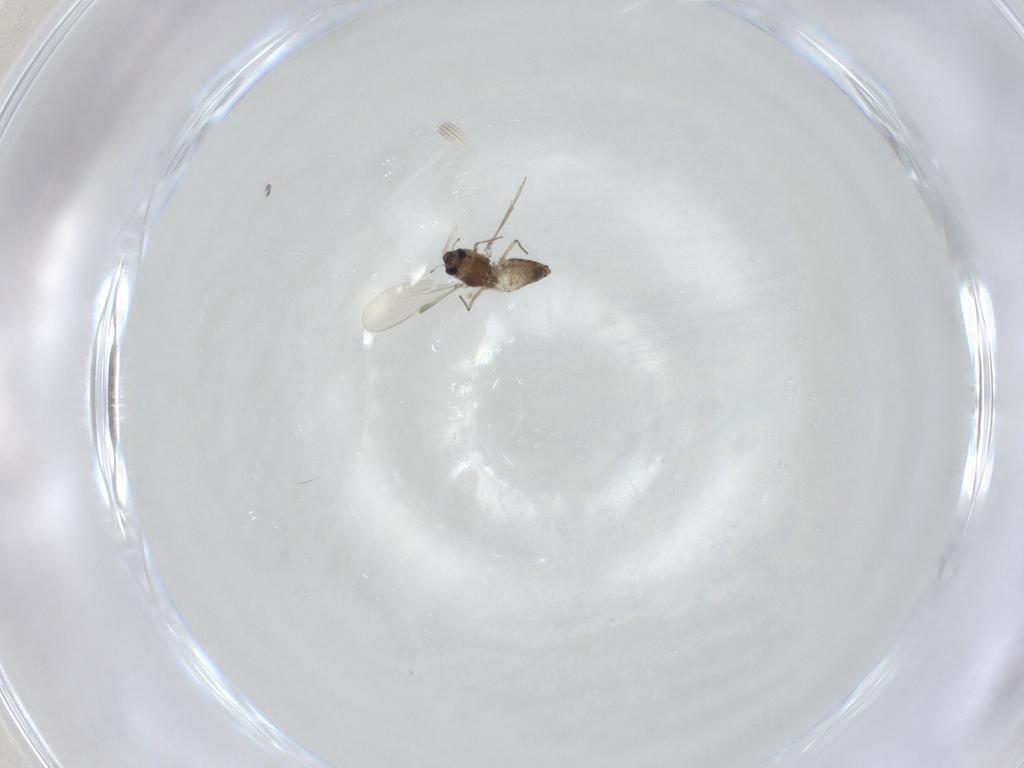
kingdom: Animalia
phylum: Arthropoda
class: Insecta
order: Diptera
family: Chironomidae
